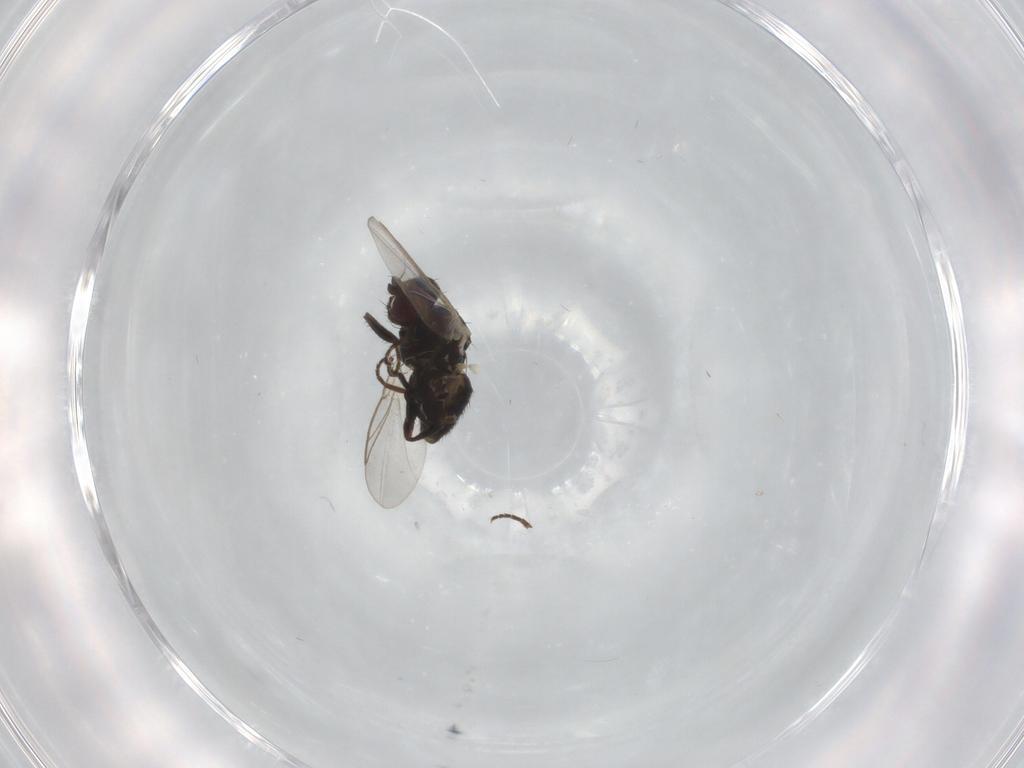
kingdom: Animalia
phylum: Arthropoda
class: Insecta
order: Diptera
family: Agromyzidae
